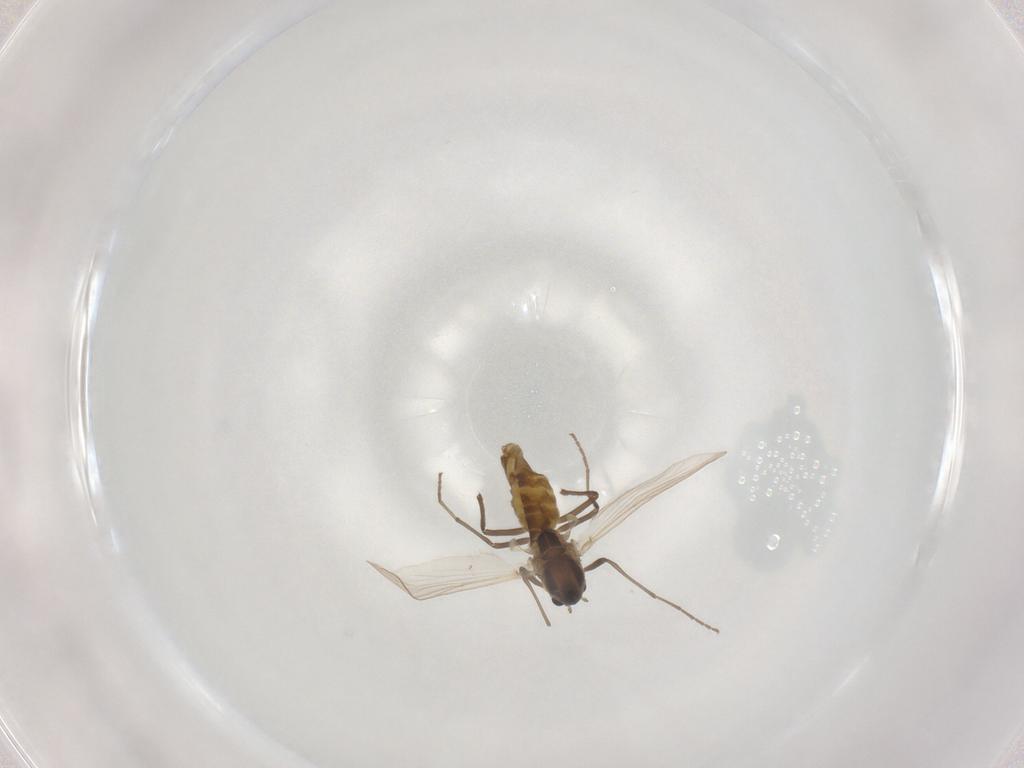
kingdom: Animalia
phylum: Arthropoda
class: Insecta
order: Diptera
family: Chironomidae
